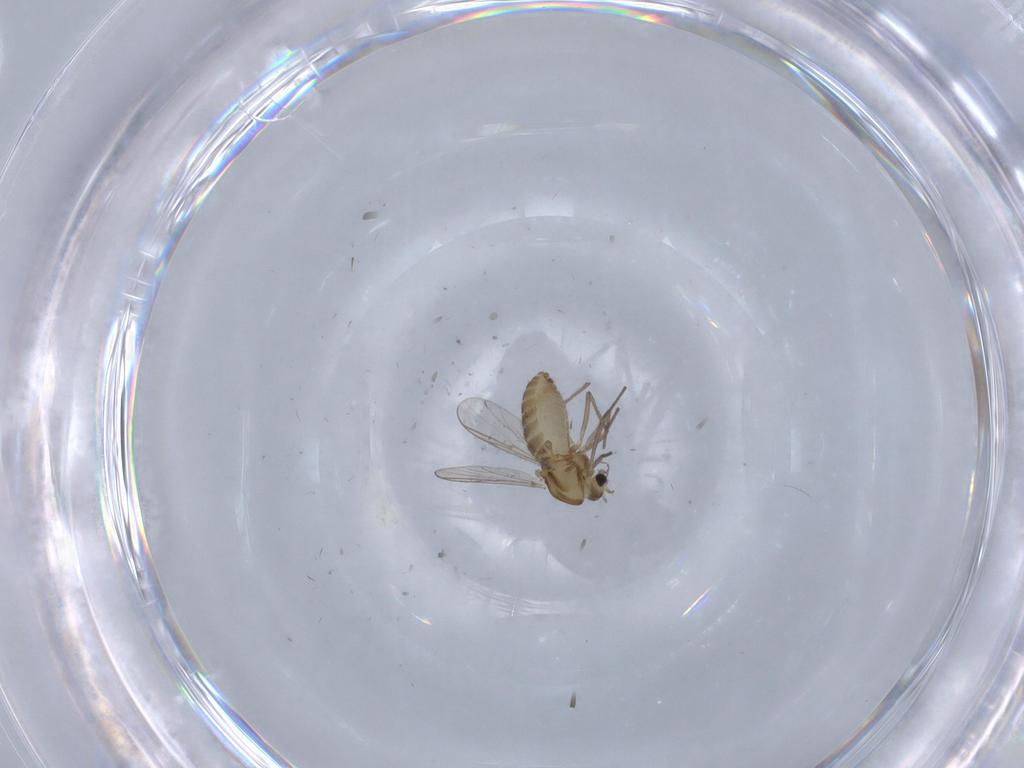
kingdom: Animalia
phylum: Arthropoda
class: Insecta
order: Diptera
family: Chironomidae
